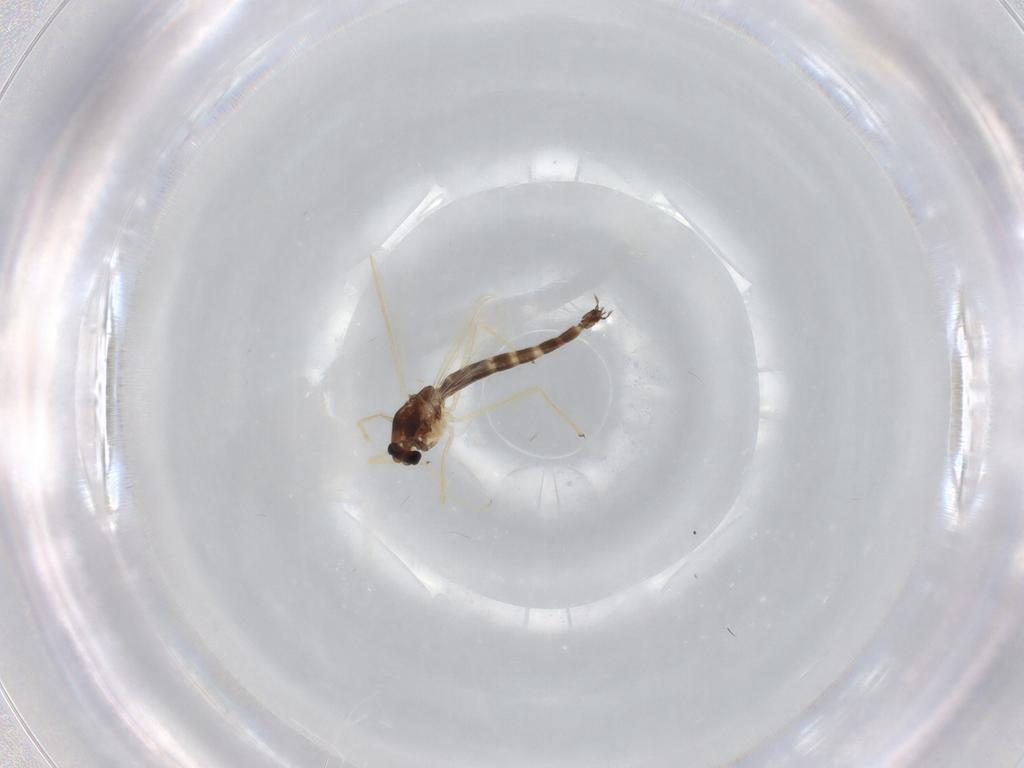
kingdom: Animalia
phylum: Arthropoda
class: Insecta
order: Diptera
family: Chironomidae
